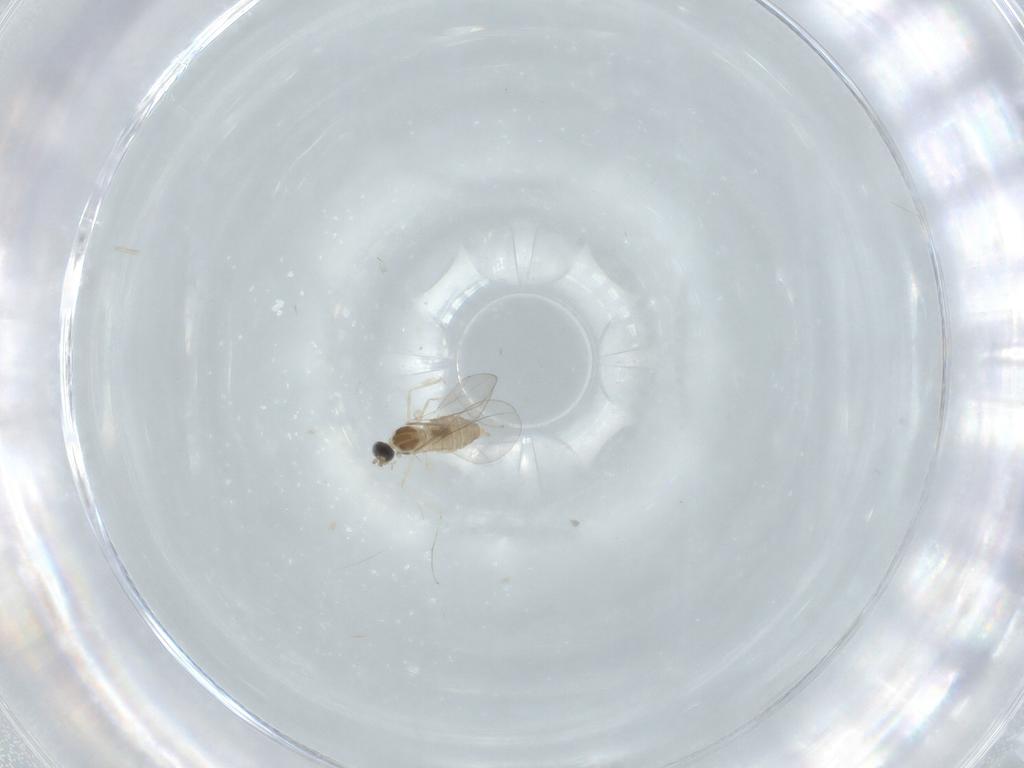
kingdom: Animalia
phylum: Arthropoda
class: Insecta
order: Diptera
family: Cecidomyiidae
